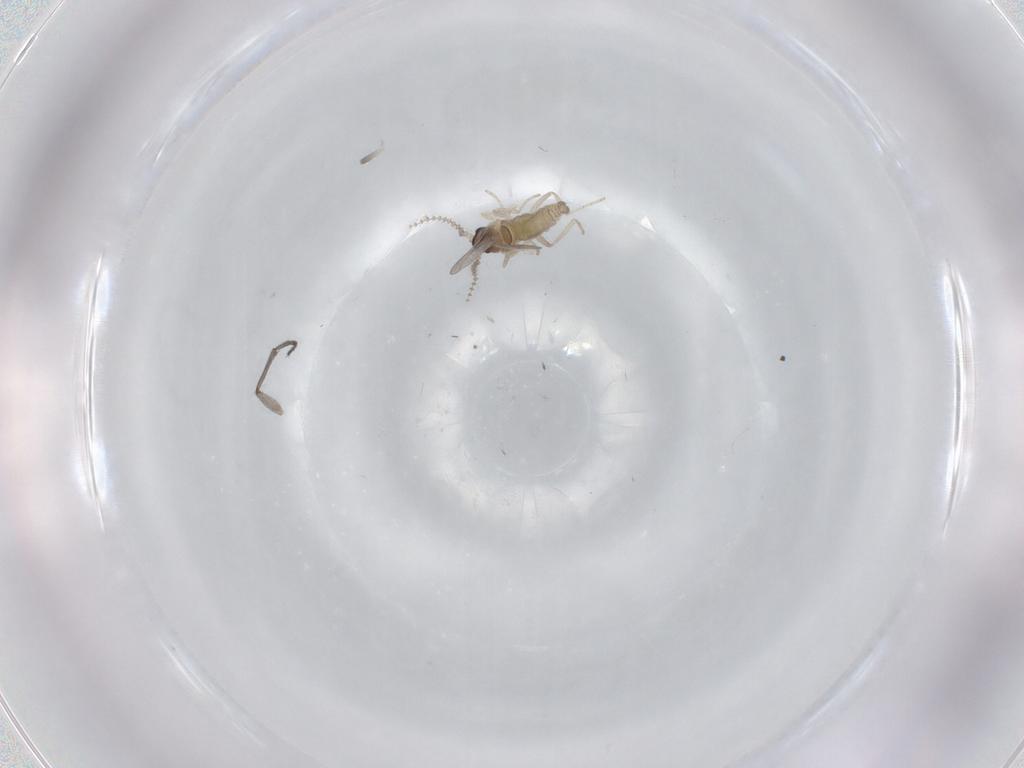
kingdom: Animalia
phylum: Arthropoda
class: Insecta
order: Diptera
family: Cecidomyiidae
